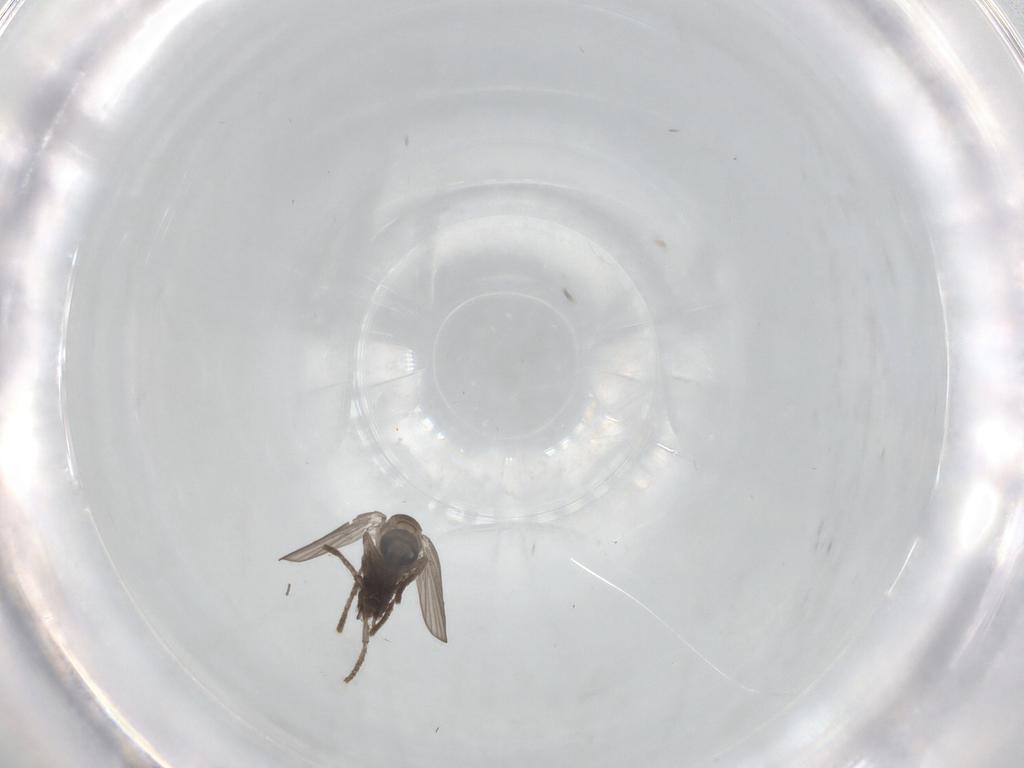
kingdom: Animalia
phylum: Arthropoda
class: Insecta
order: Diptera
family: Psychodidae
